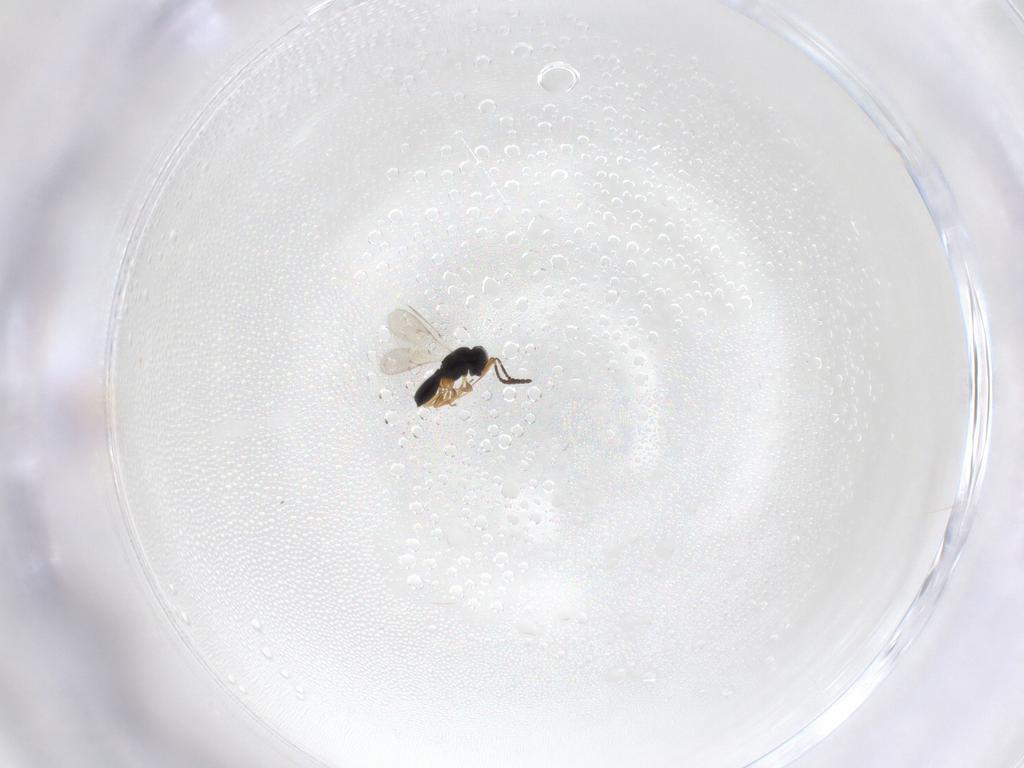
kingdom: Animalia
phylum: Arthropoda
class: Insecta
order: Hymenoptera
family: Scelionidae
